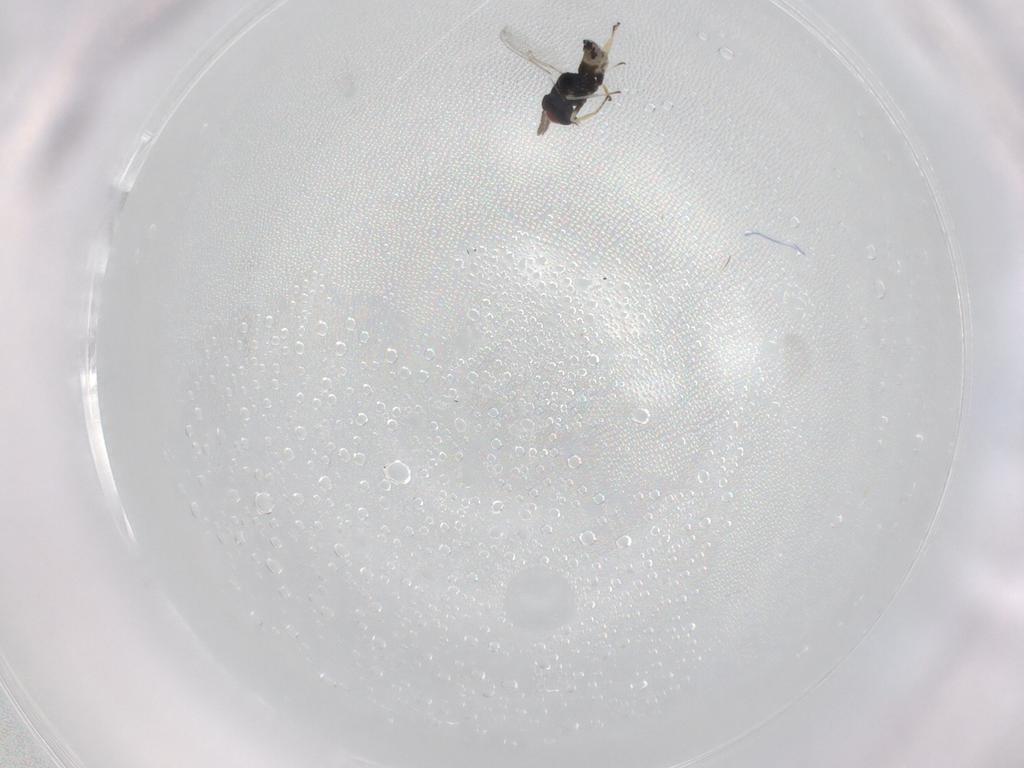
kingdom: Animalia
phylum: Arthropoda
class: Insecta
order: Hymenoptera
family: Eulophidae
